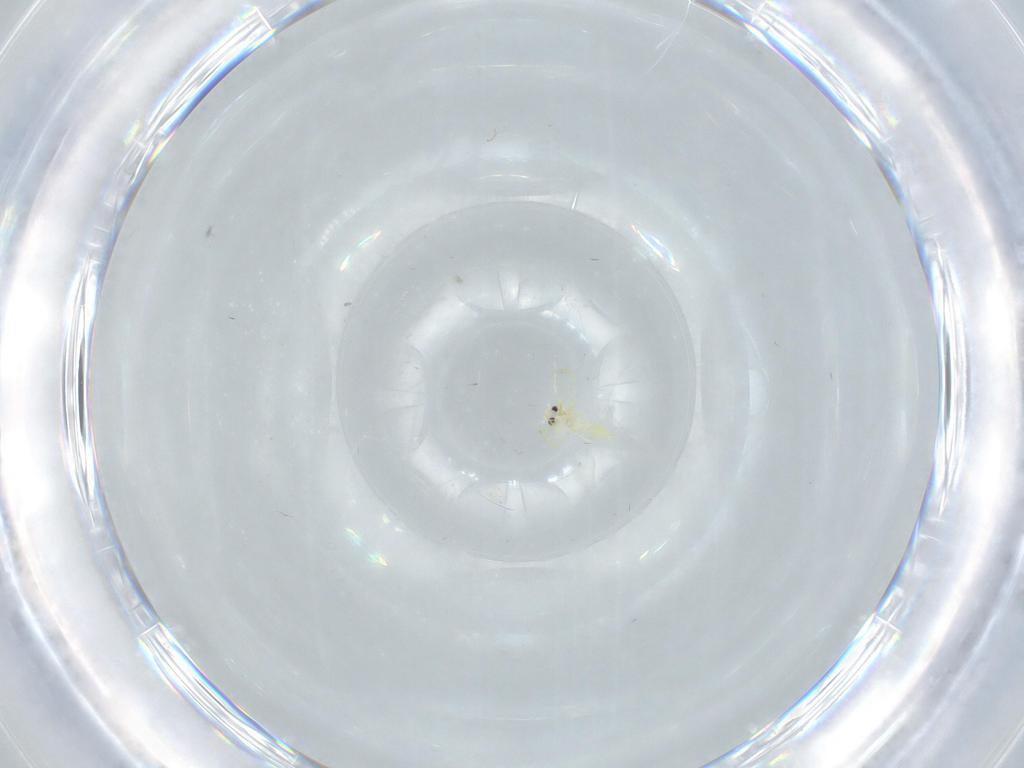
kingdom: Animalia
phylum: Arthropoda
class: Insecta
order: Hemiptera
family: Aleyrodidae
